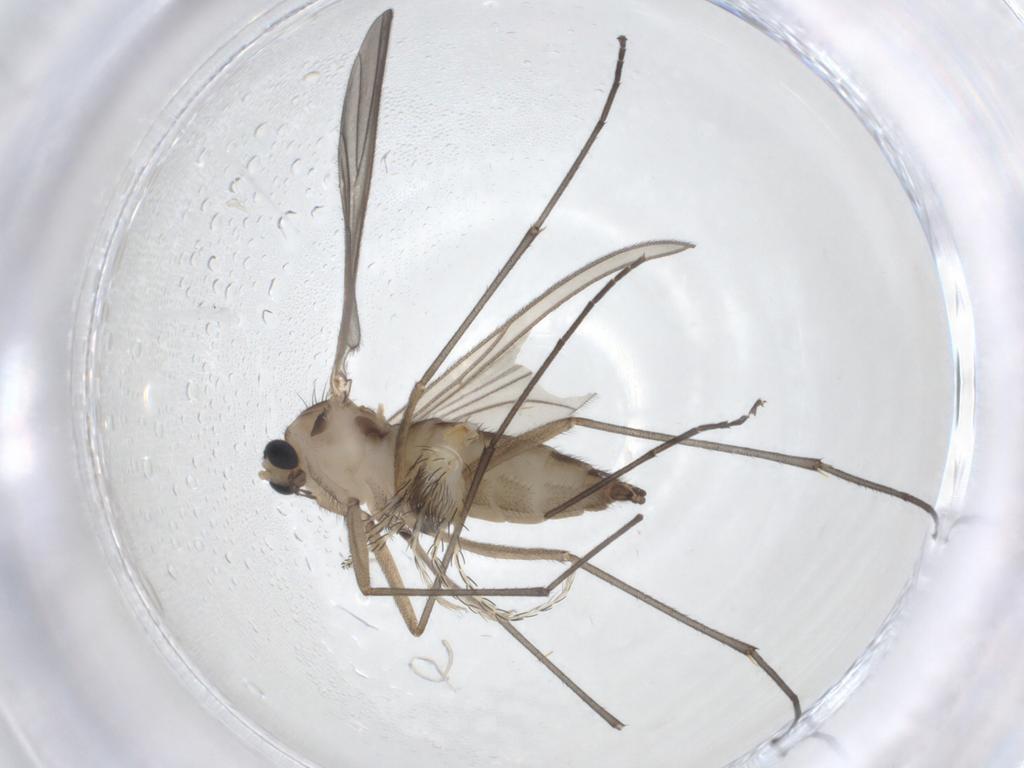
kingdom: Animalia
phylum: Arthropoda
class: Insecta
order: Diptera
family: Sciaridae
